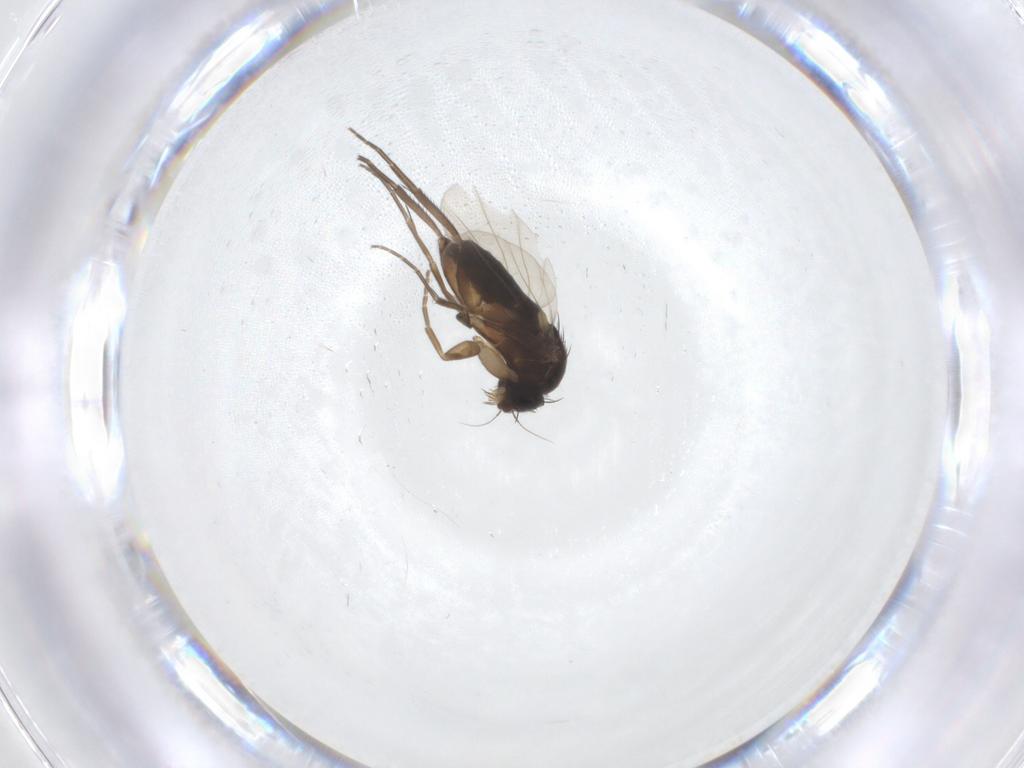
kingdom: Animalia
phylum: Arthropoda
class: Insecta
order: Diptera
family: Phoridae
